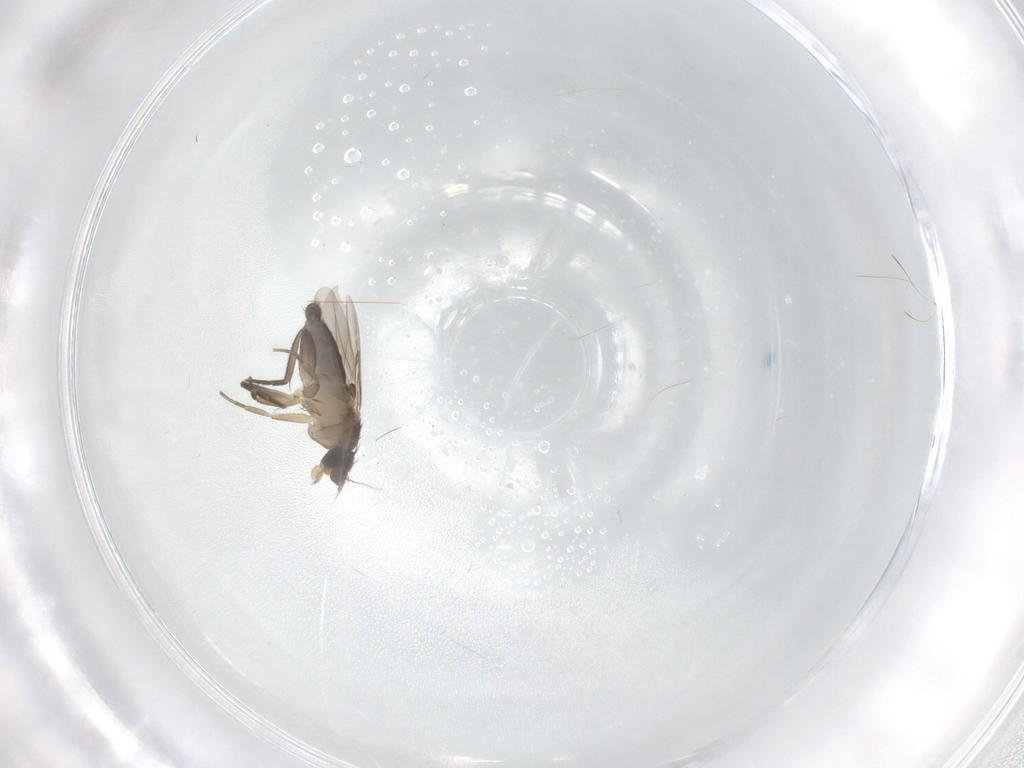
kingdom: Animalia
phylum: Arthropoda
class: Insecta
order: Diptera
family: Phoridae
